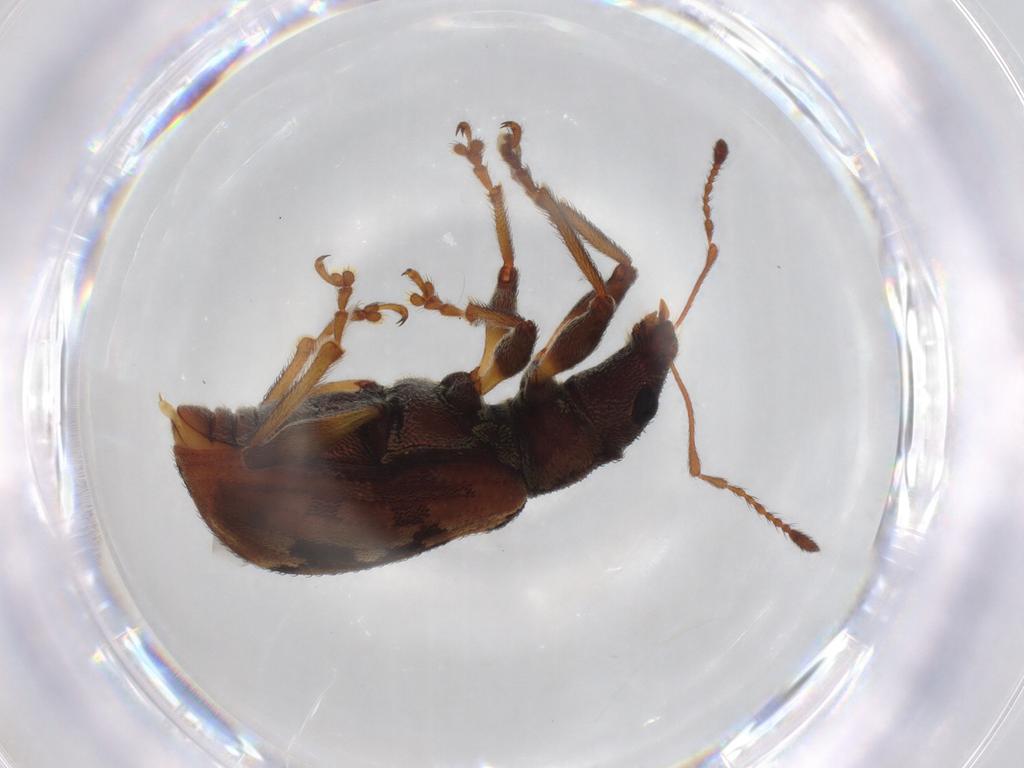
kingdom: Animalia
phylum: Arthropoda
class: Insecta
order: Coleoptera
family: Curculionidae
